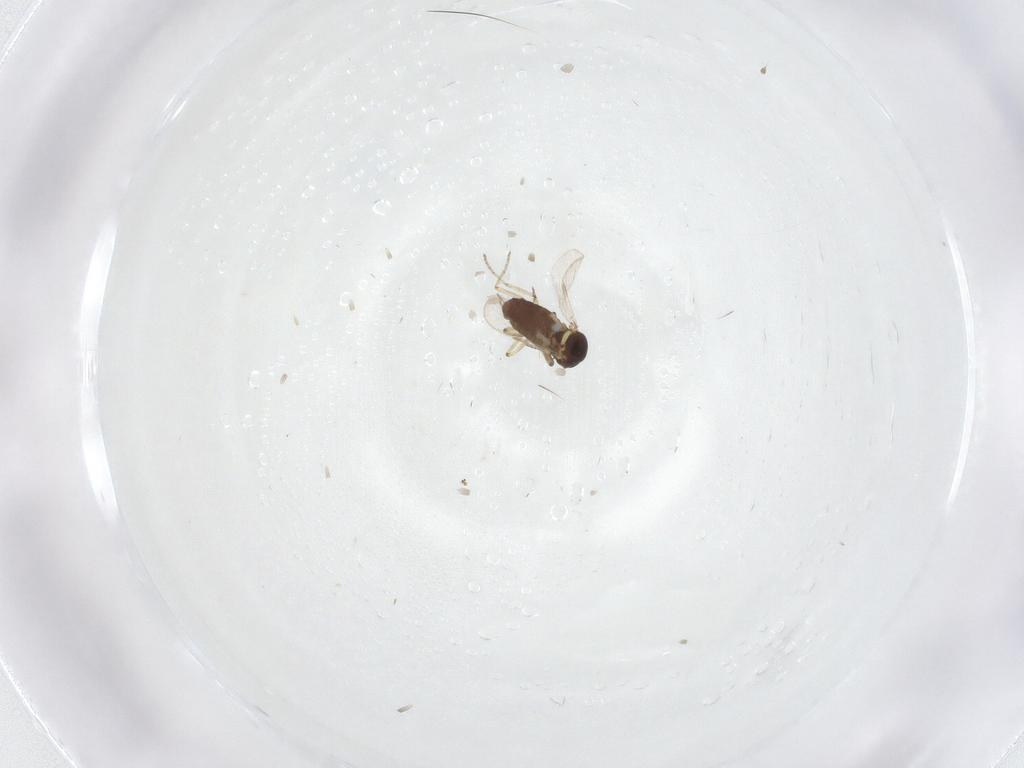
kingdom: Animalia
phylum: Arthropoda
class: Insecta
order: Diptera
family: Ceratopogonidae
